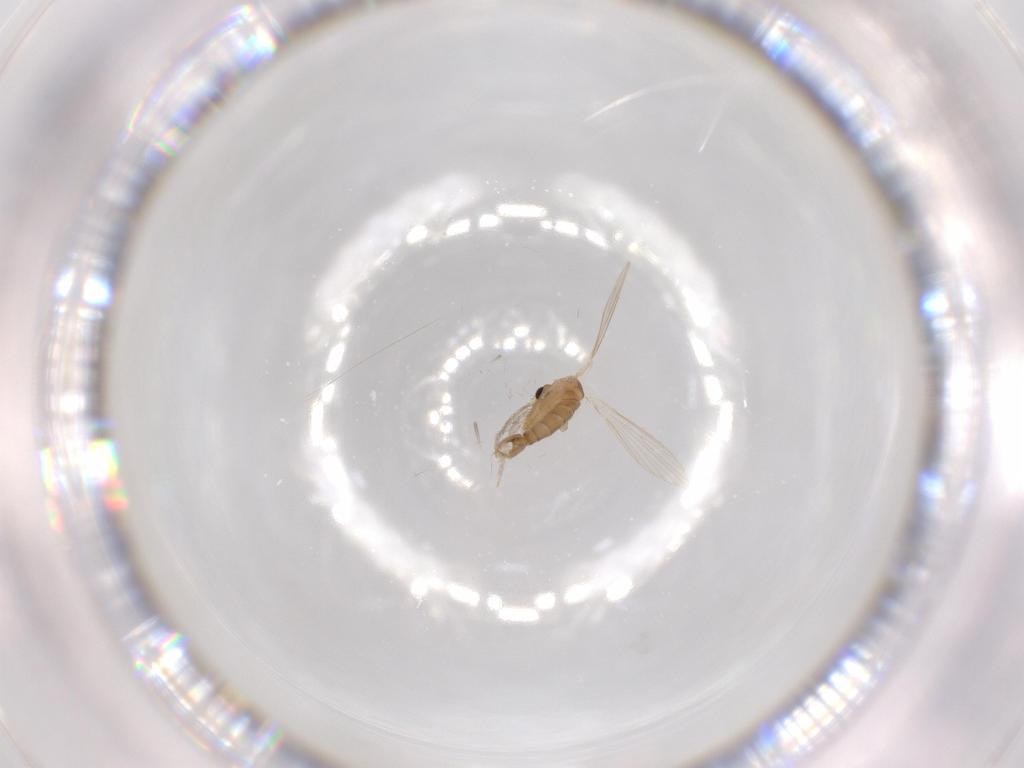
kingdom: Animalia
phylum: Arthropoda
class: Insecta
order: Diptera
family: Psychodidae
